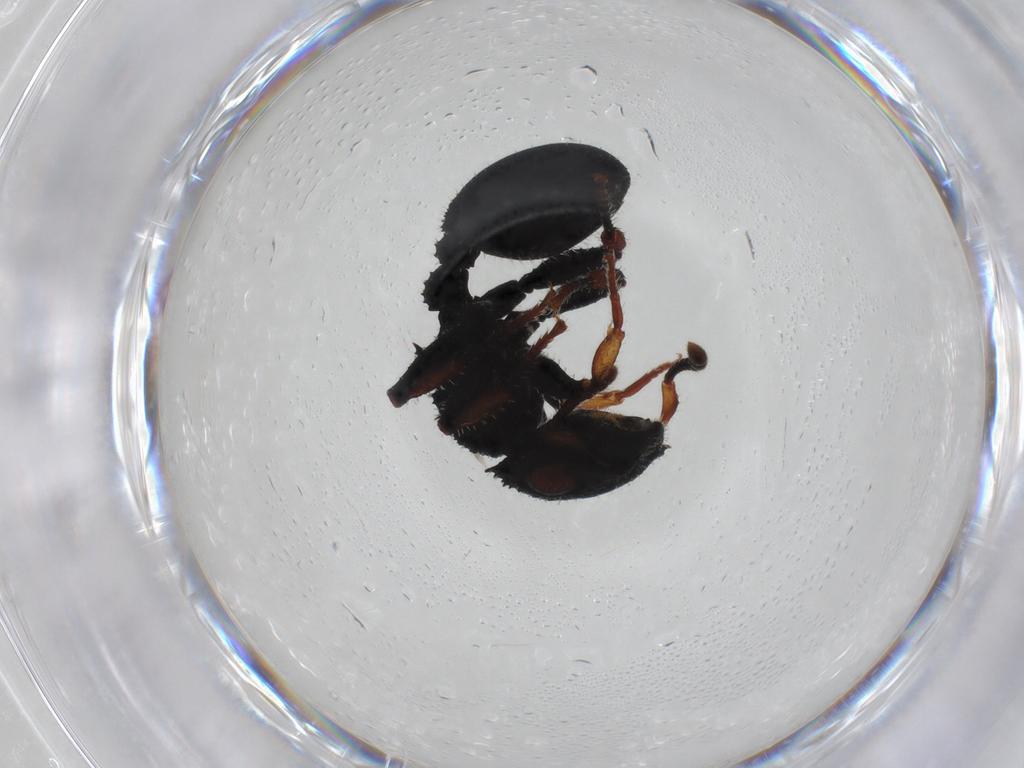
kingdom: Animalia
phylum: Arthropoda
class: Insecta
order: Hymenoptera
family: Formicidae
